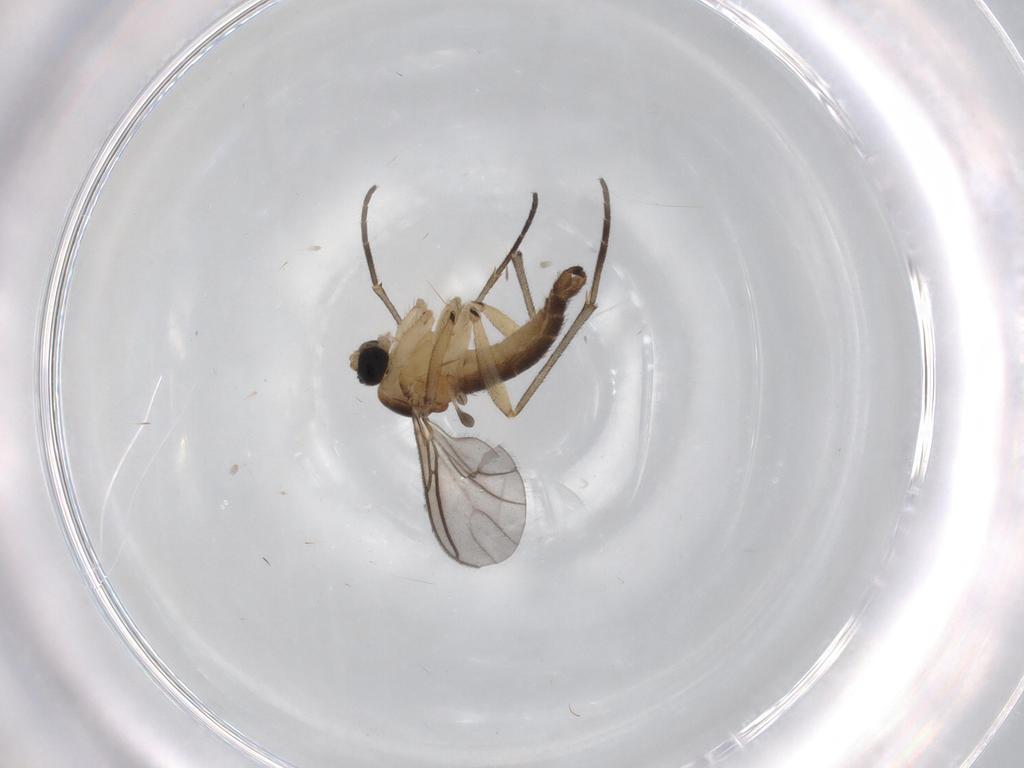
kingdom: Animalia
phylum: Arthropoda
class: Insecta
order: Diptera
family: Sciaridae
